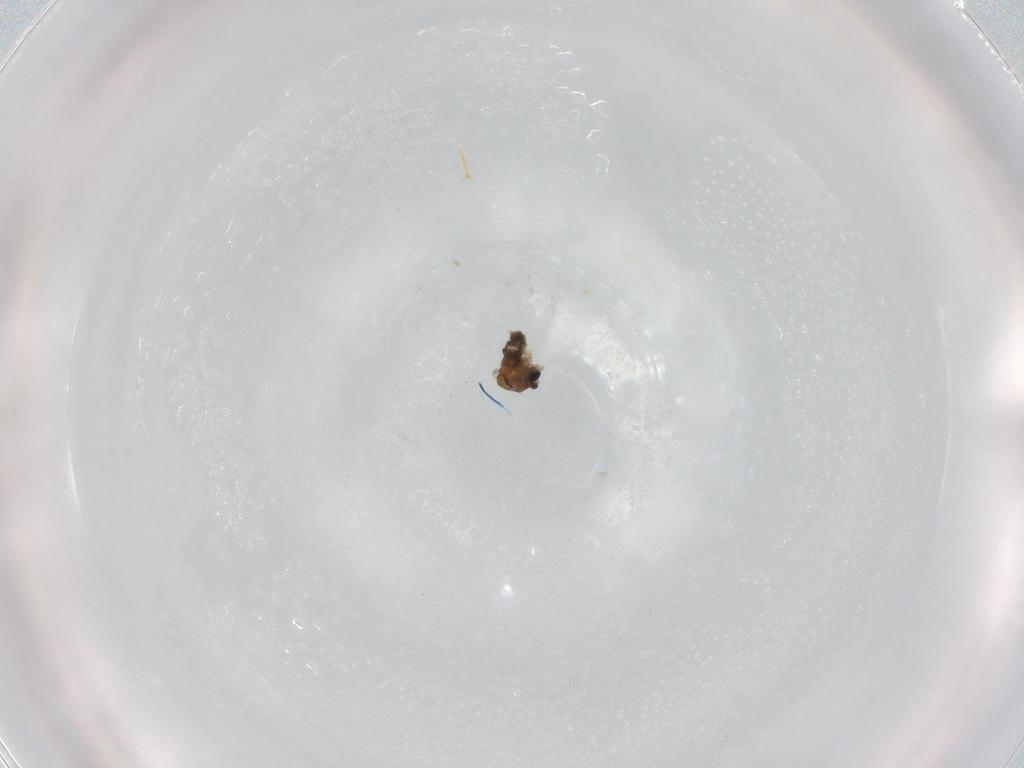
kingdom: Animalia
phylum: Arthropoda
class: Insecta
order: Diptera
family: Cecidomyiidae
